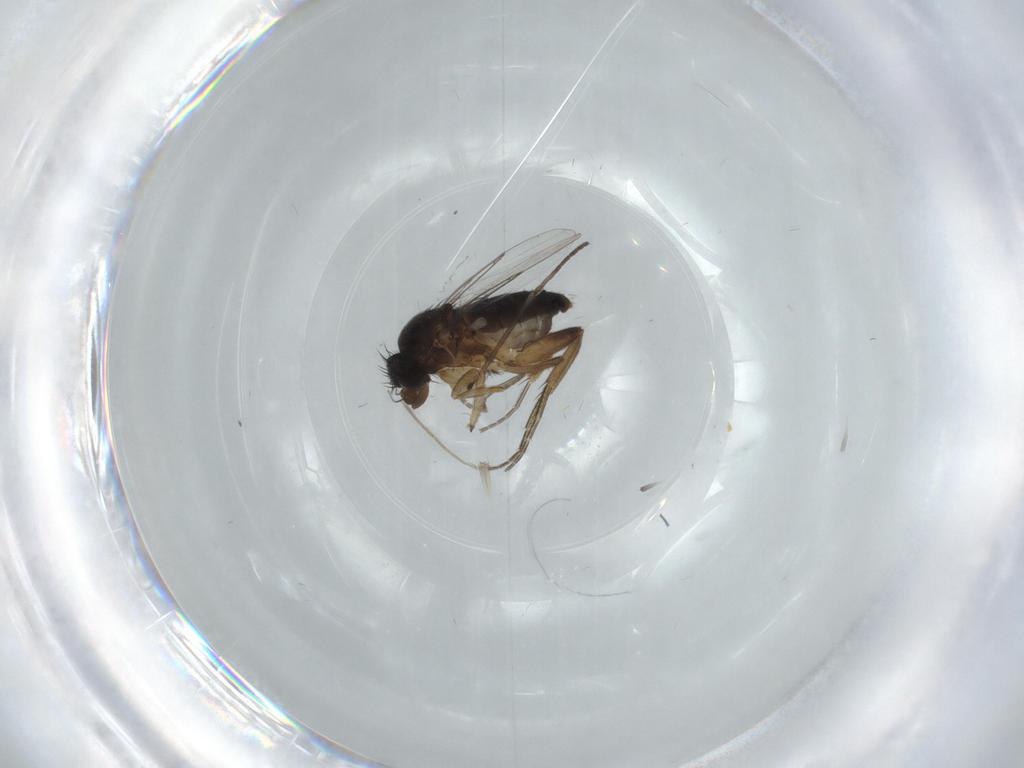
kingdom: Animalia
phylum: Arthropoda
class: Insecta
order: Diptera
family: Phoridae
